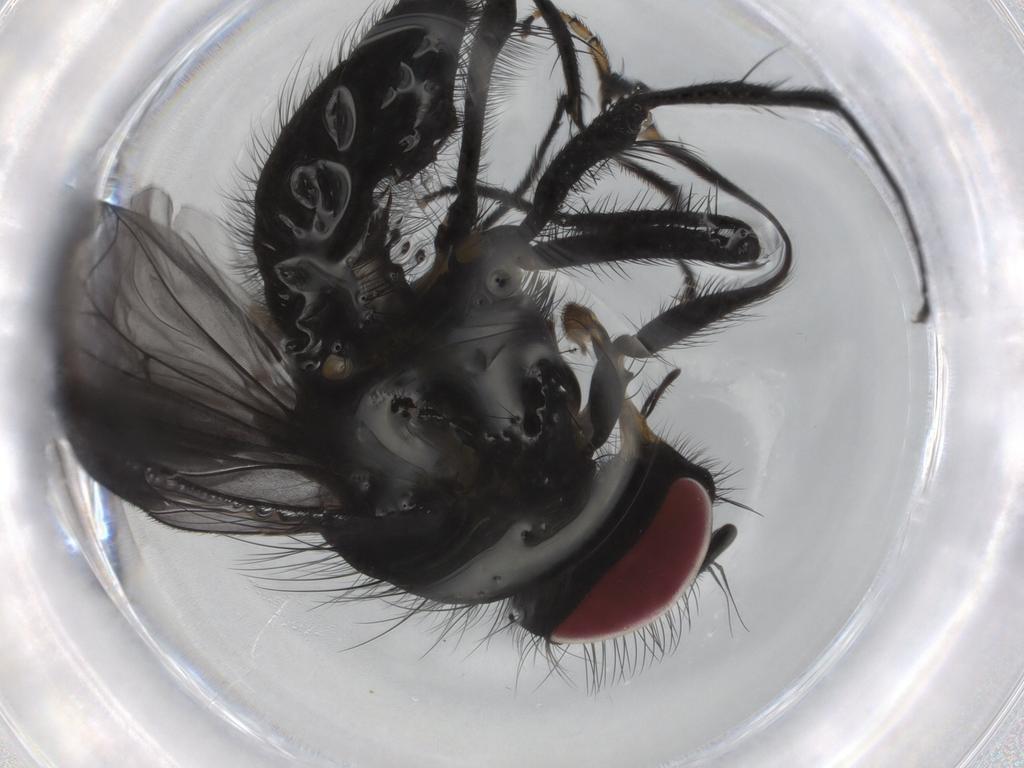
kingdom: Animalia
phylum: Arthropoda
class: Insecta
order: Diptera
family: Fannia
